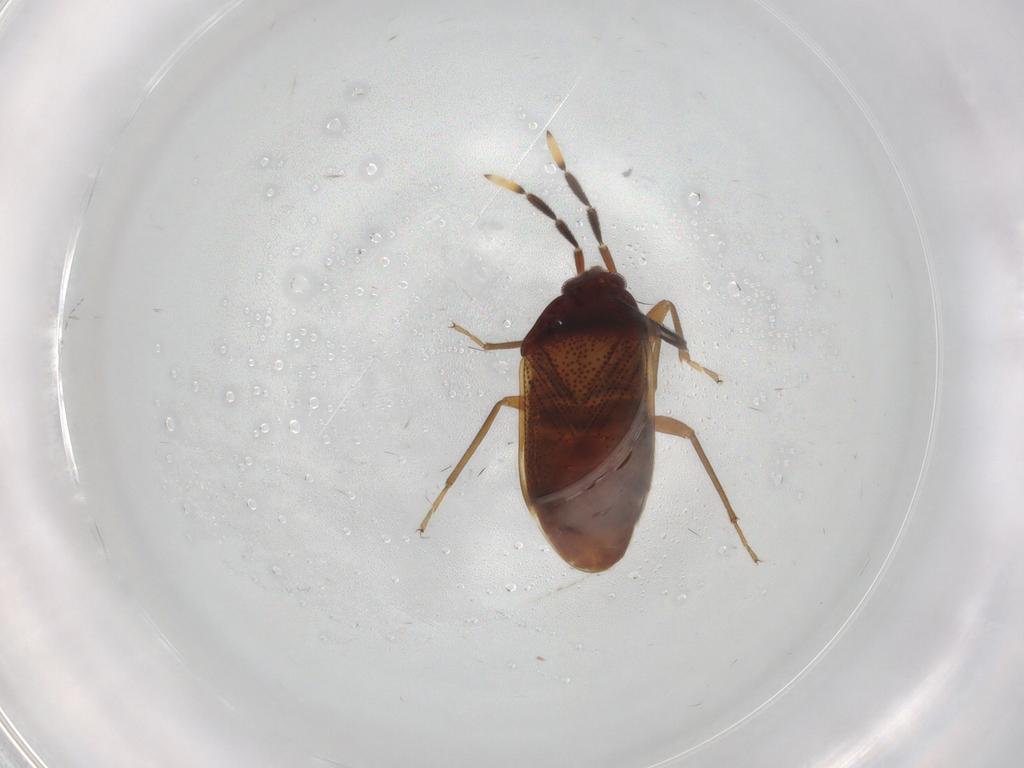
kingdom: Animalia
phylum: Arthropoda
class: Insecta
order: Hemiptera
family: Rhyparochromidae
